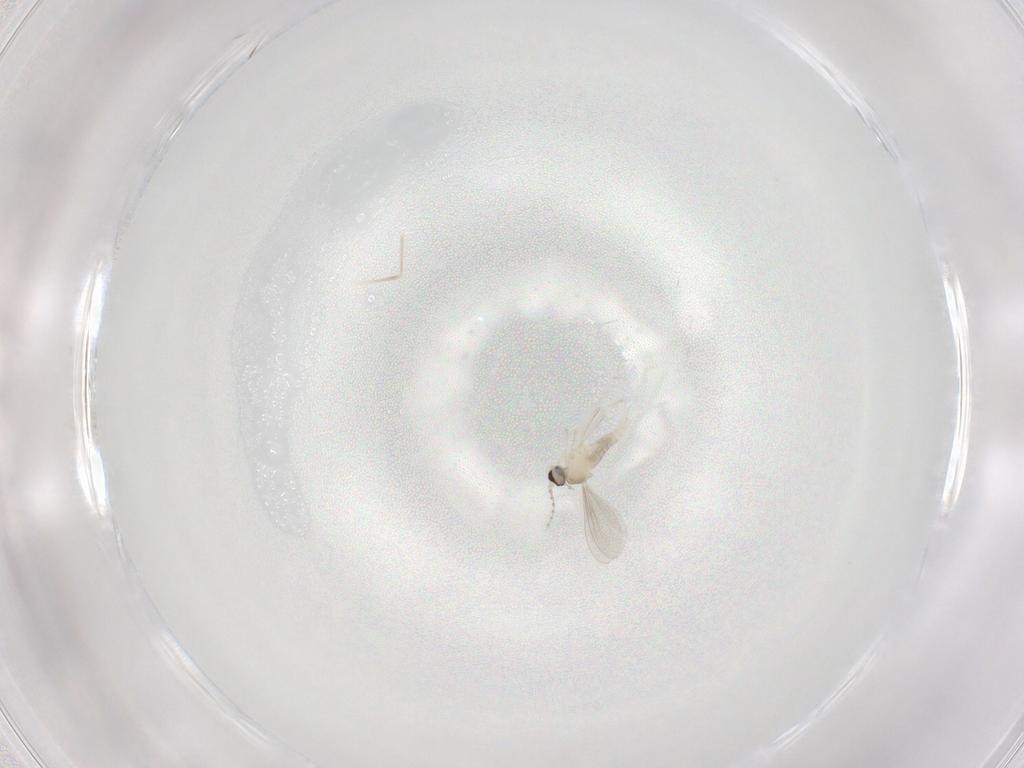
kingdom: Animalia
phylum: Arthropoda
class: Insecta
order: Diptera
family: Cecidomyiidae
